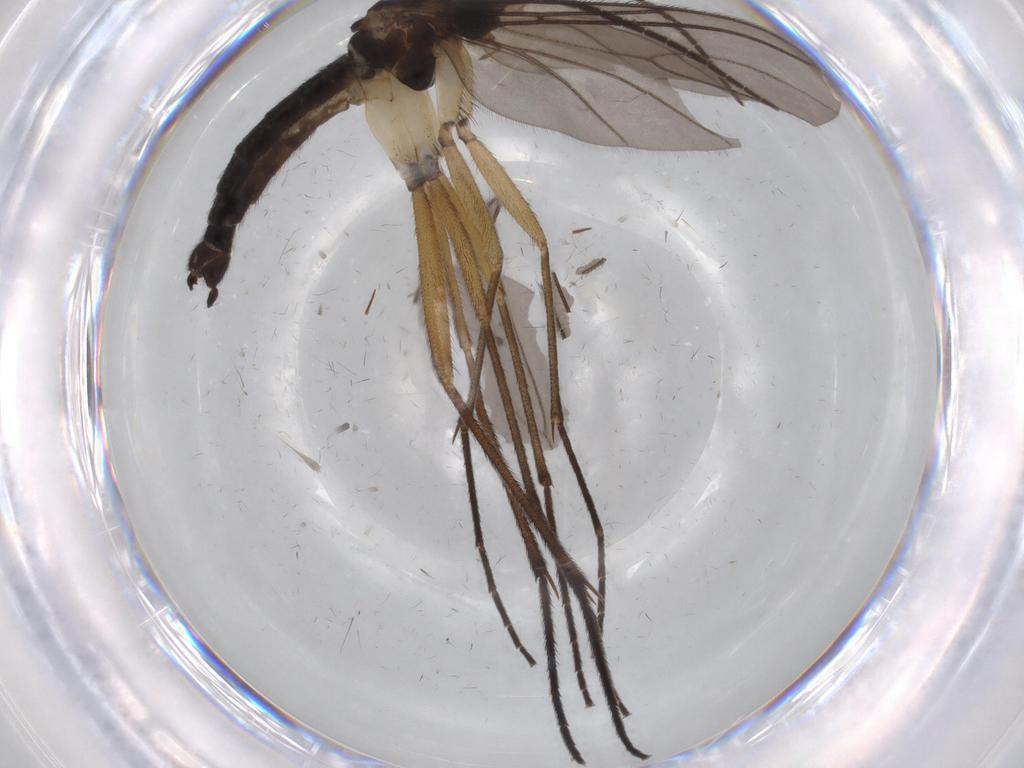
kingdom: Animalia
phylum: Arthropoda
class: Insecta
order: Diptera
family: Sciaridae
